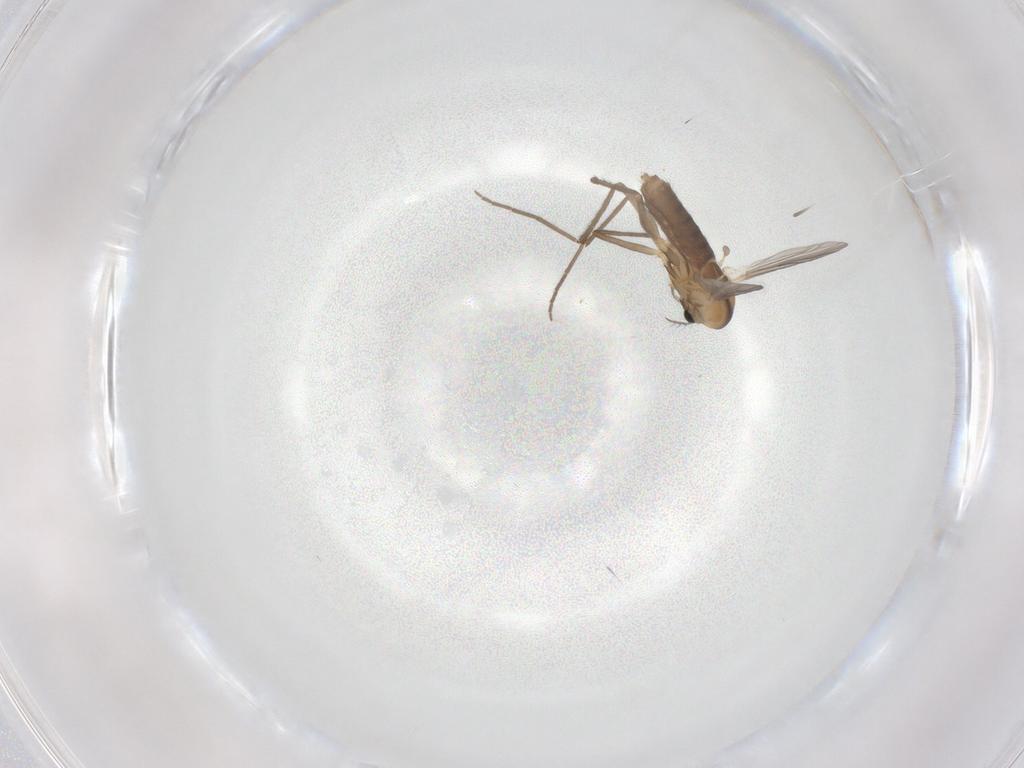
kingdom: Animalia
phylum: Arthropoda
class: Insecta
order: Diptera
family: Chironomidae
